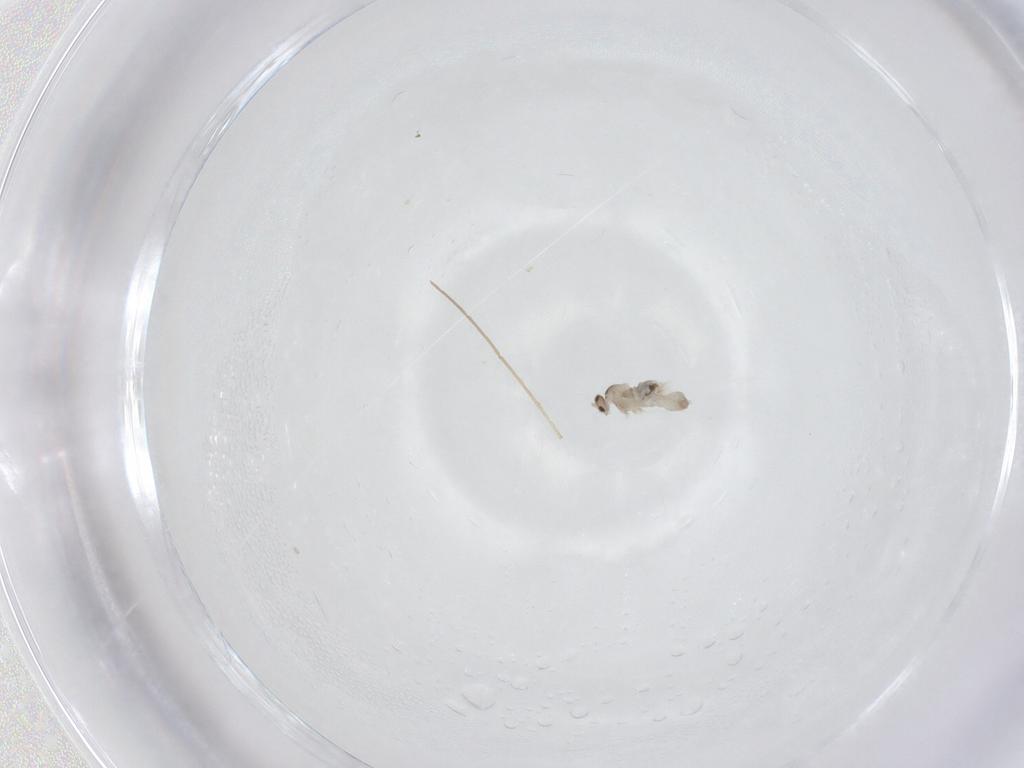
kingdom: Animalia
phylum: Arthropoda
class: Insecta
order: Diptera
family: Cecidomyiidae
